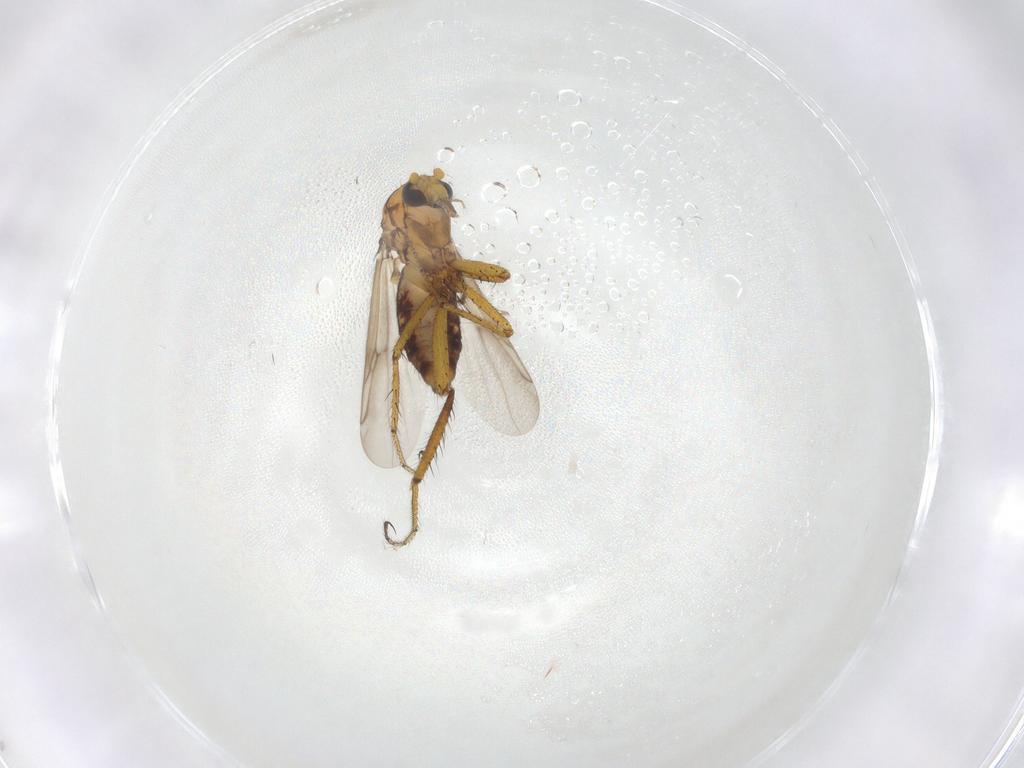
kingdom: Animalia
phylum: Arthropoda
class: Insecta
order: Diptera
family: Ceratopogonidae
